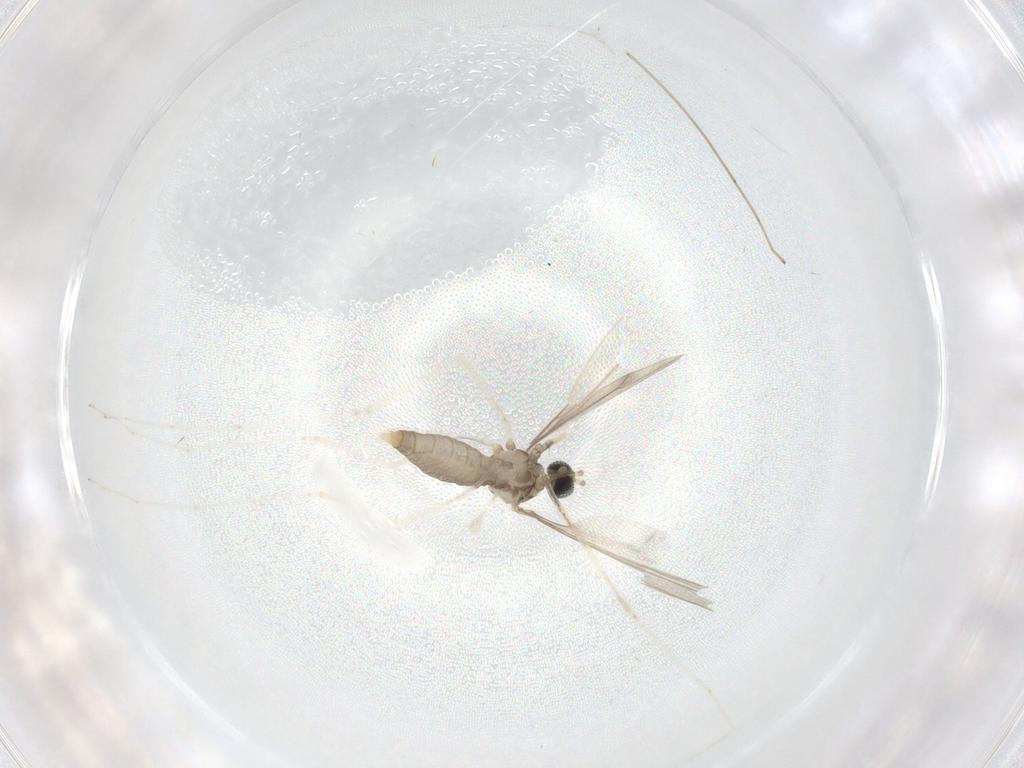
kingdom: Animalia
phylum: Arthropoda
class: Insecta
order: Diptera
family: Cecidomyiidae
